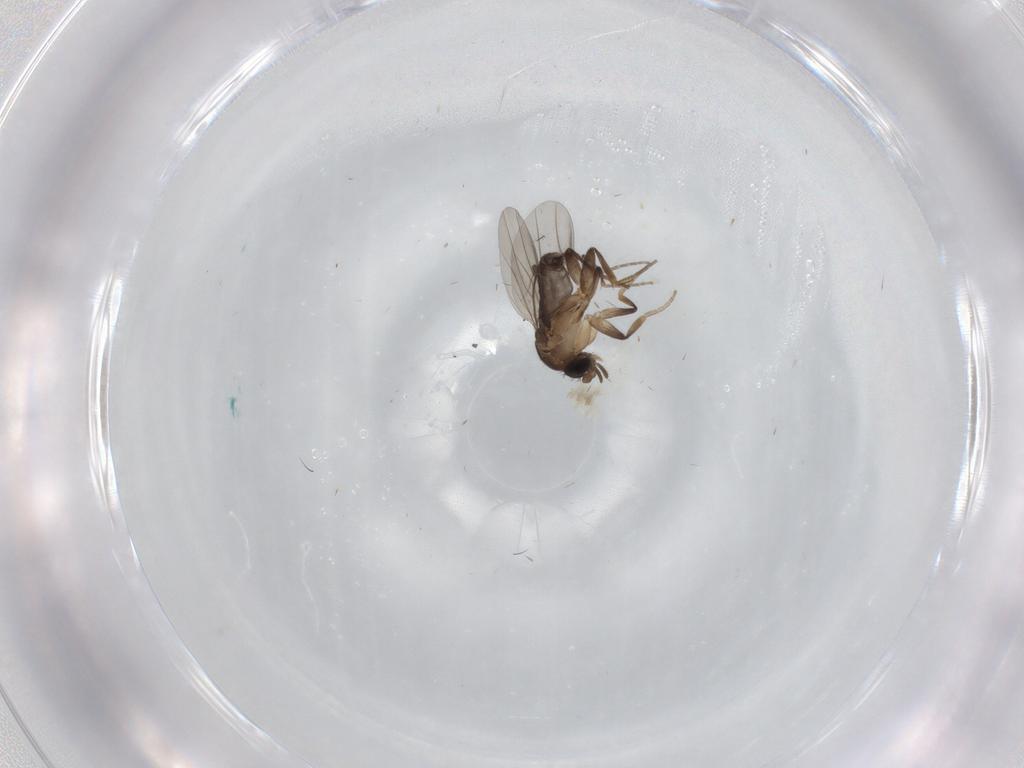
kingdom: Animalia
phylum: Arthropoda
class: Insecta
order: Diptera
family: Phoridae
